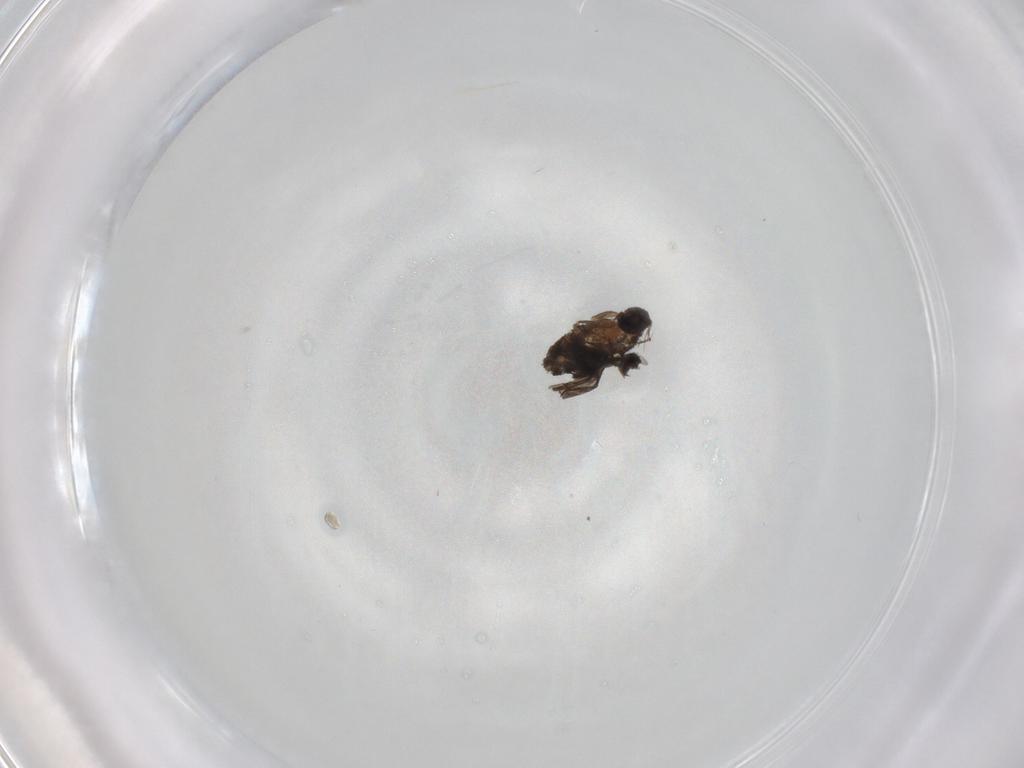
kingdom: Animalia
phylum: Arthropoda
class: Insecta
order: Diptera
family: Phoridae
